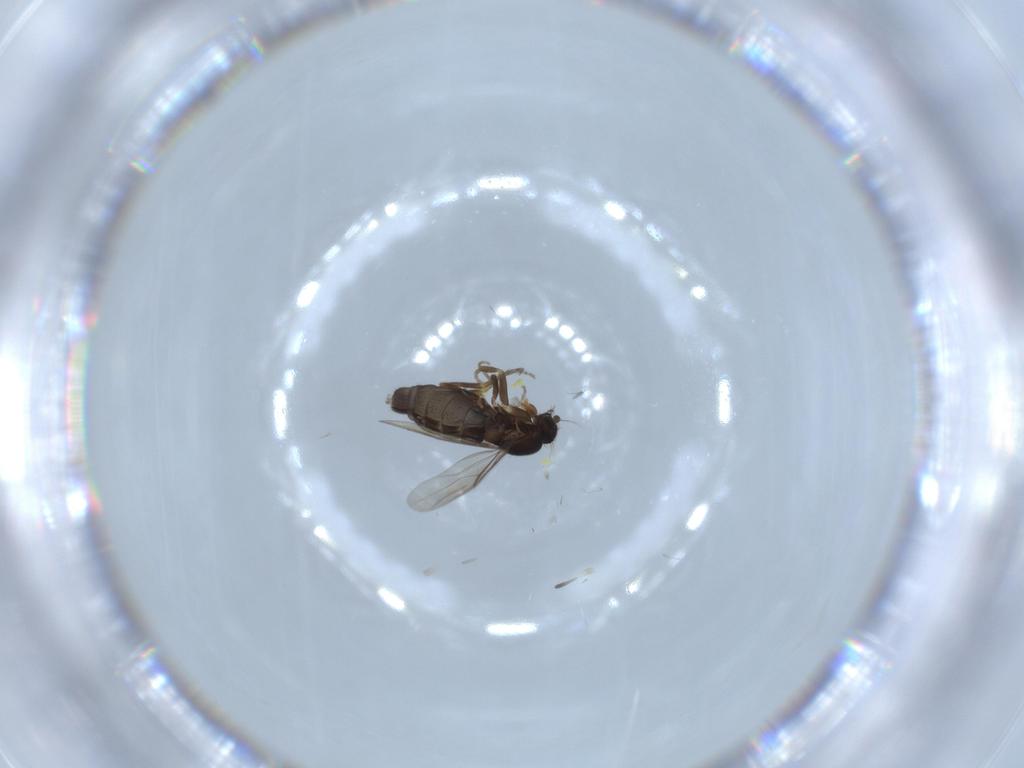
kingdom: Animalia
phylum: Arthropoda
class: Insecta
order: Diptera
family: Phoridae
